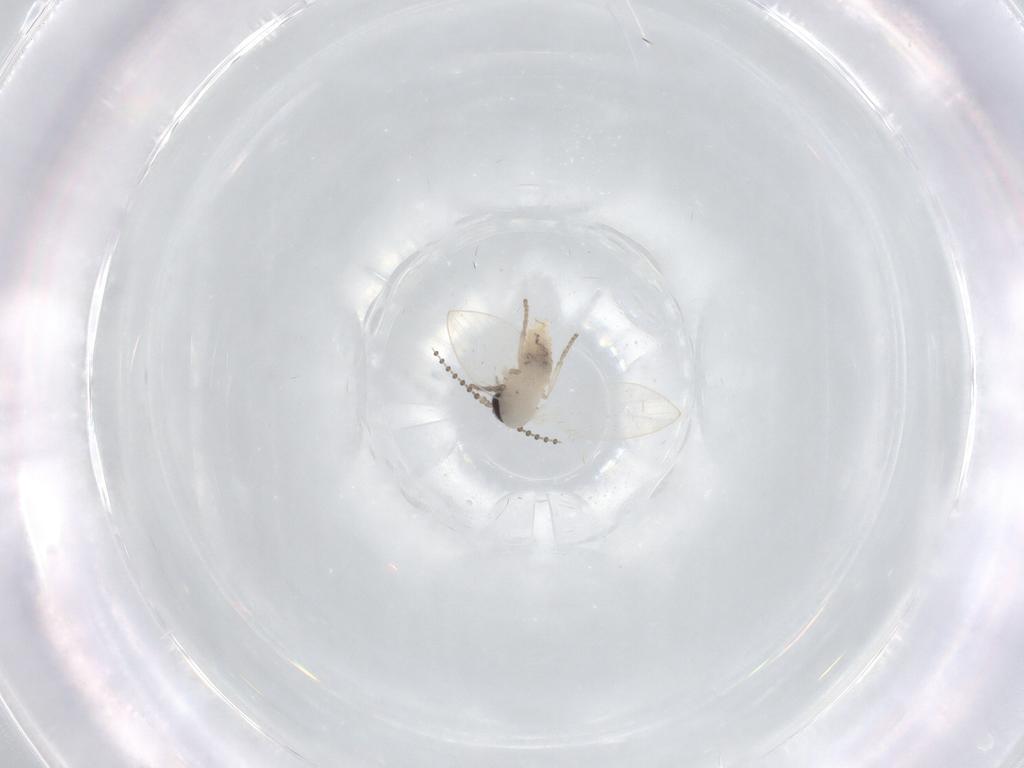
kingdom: Animalia
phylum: Arthropoda
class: Insecta
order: Diptera
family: Psychodidae
